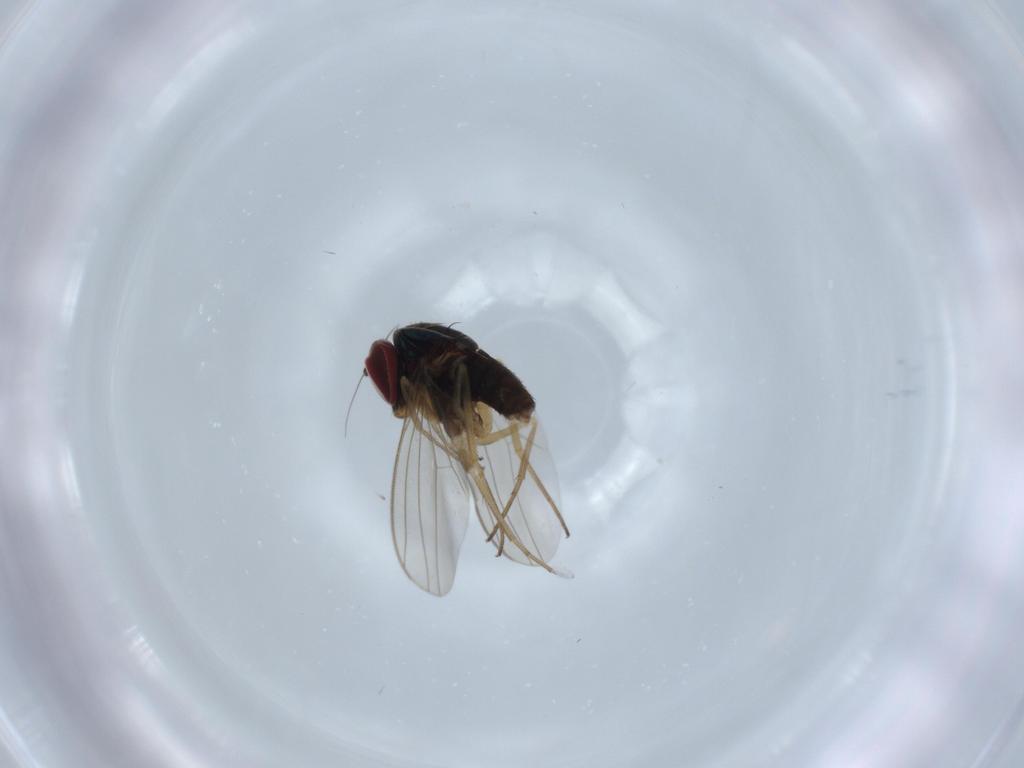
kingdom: Animalia
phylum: Arthropoda
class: Insecta
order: Diptera
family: Dolichopodidae
